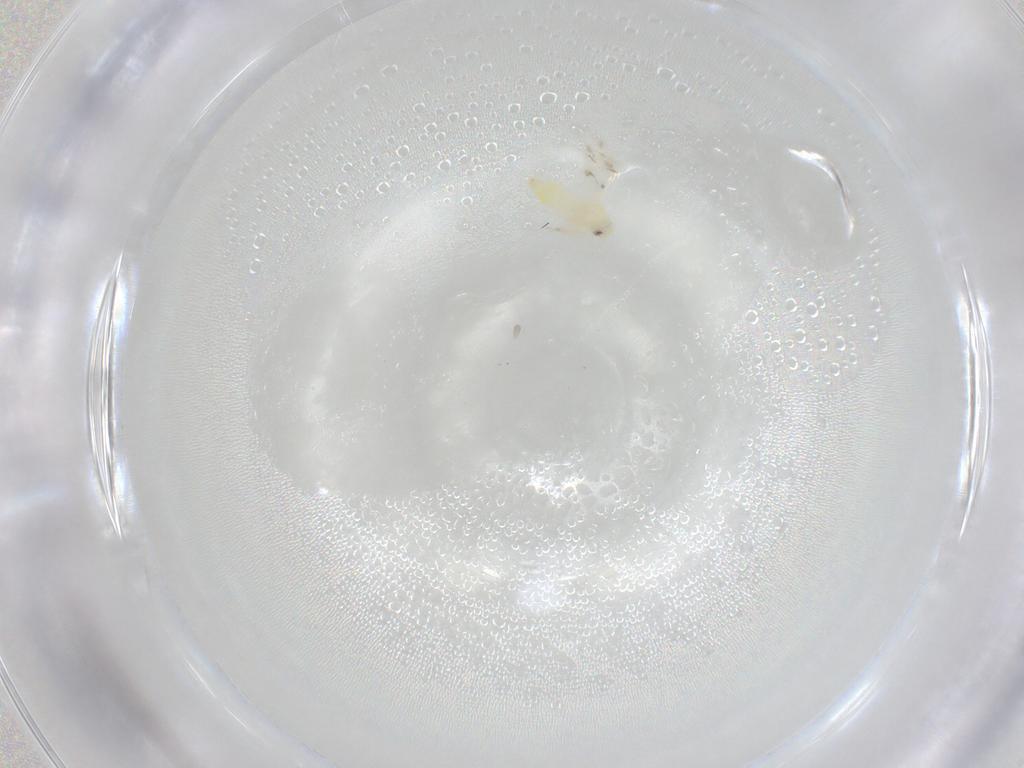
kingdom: Animalia
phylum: Arthropoda
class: Insecta
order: Hemiptera
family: Aleyrodidae
